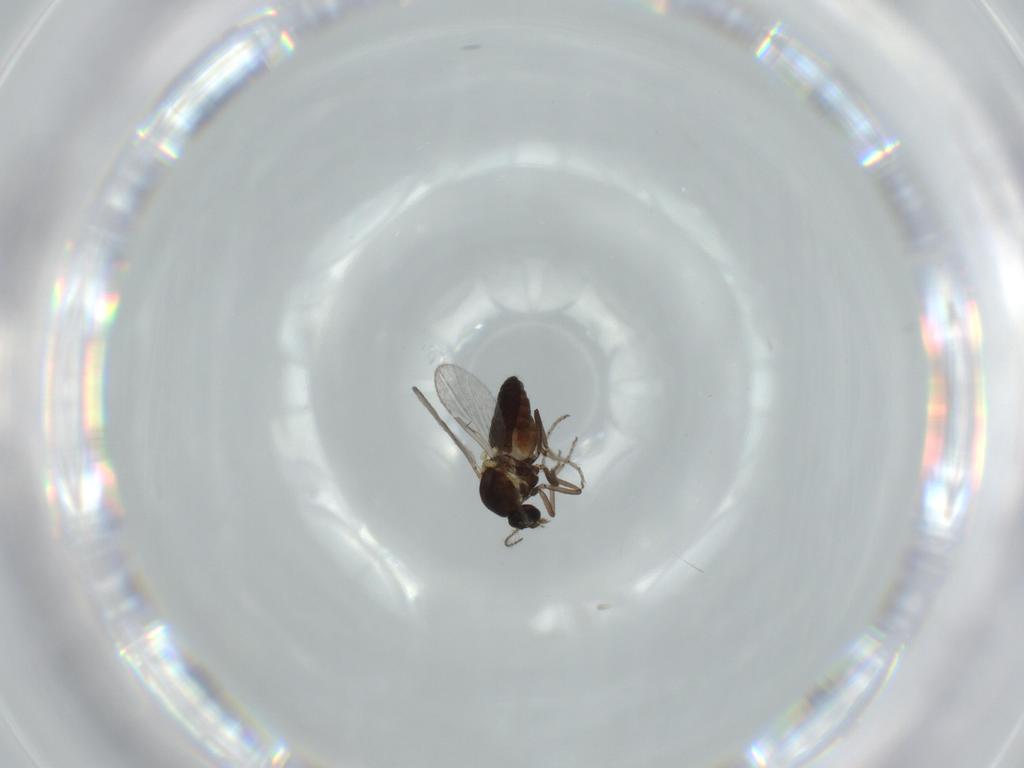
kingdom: Animalia
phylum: Arthropoda
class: Insecta
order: Diptera
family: Ceratopogonidae
